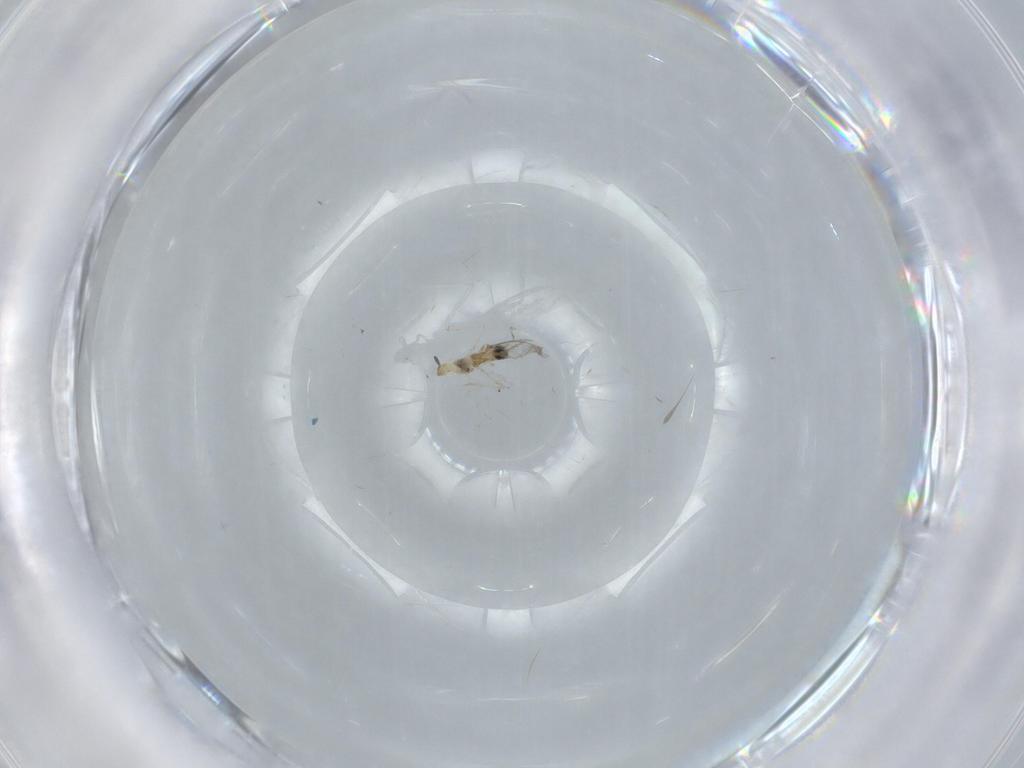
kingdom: Animalia
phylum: Arthropoda
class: Insecta
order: Diptera
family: Cecidomyiidae
